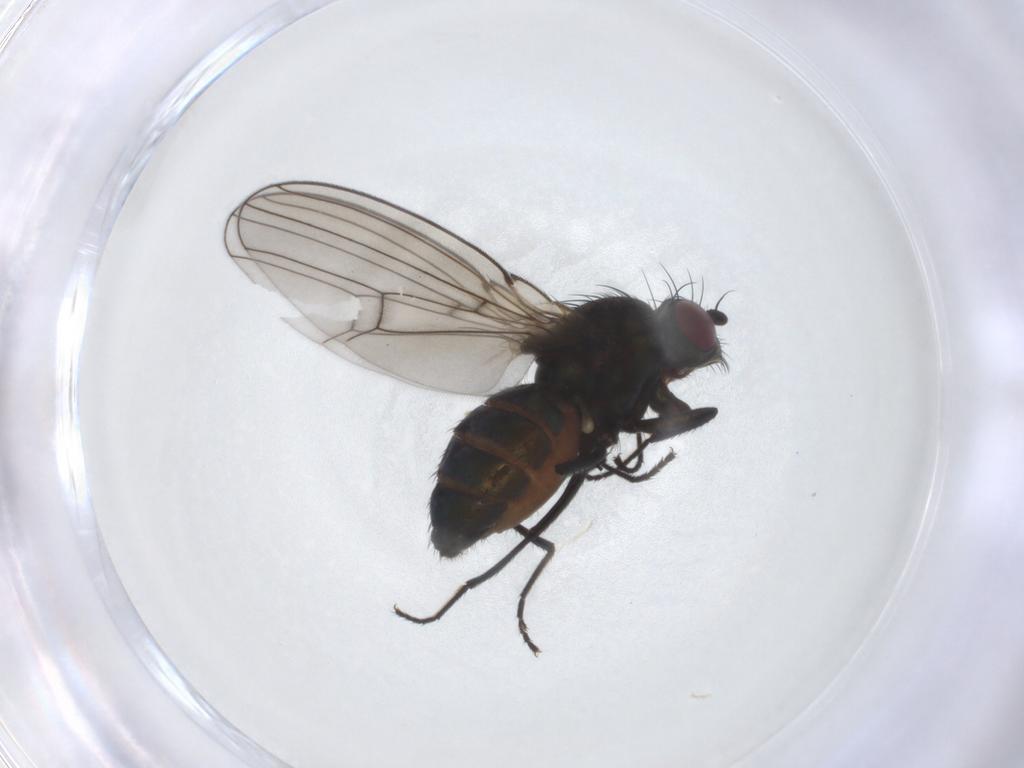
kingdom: Animalia
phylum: Arthropoda
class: Insecta
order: Diptera
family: Ephydridae
